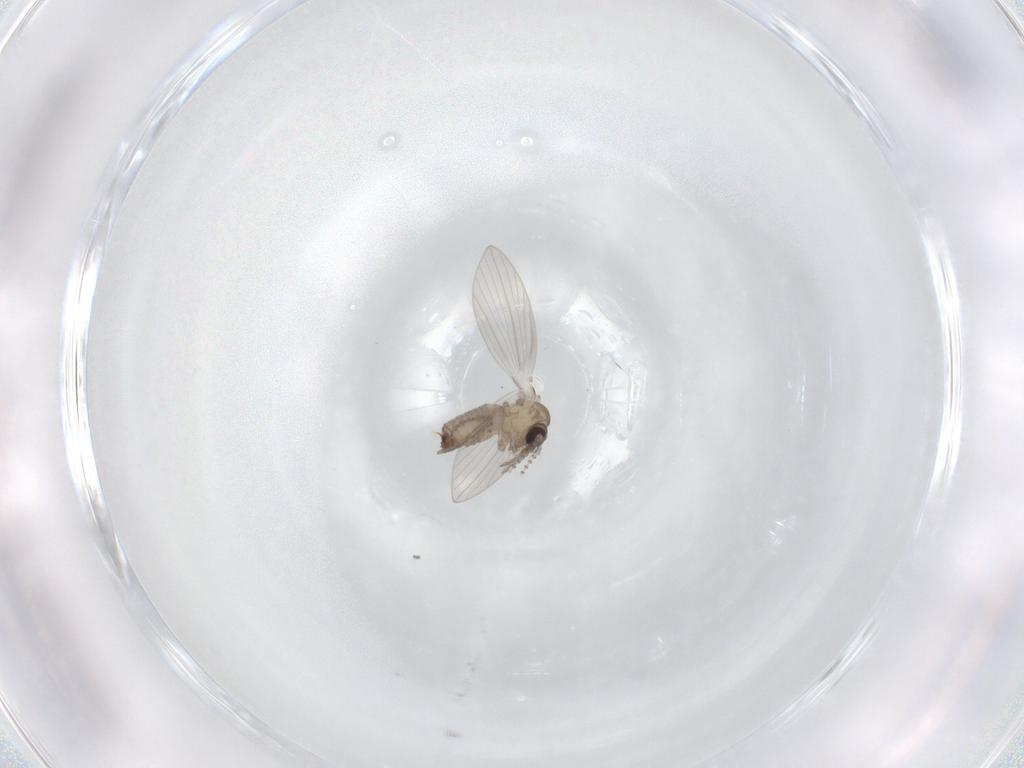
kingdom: Animalia
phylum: Arthropoda
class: Insecta
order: Diptera
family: Psychodidae
